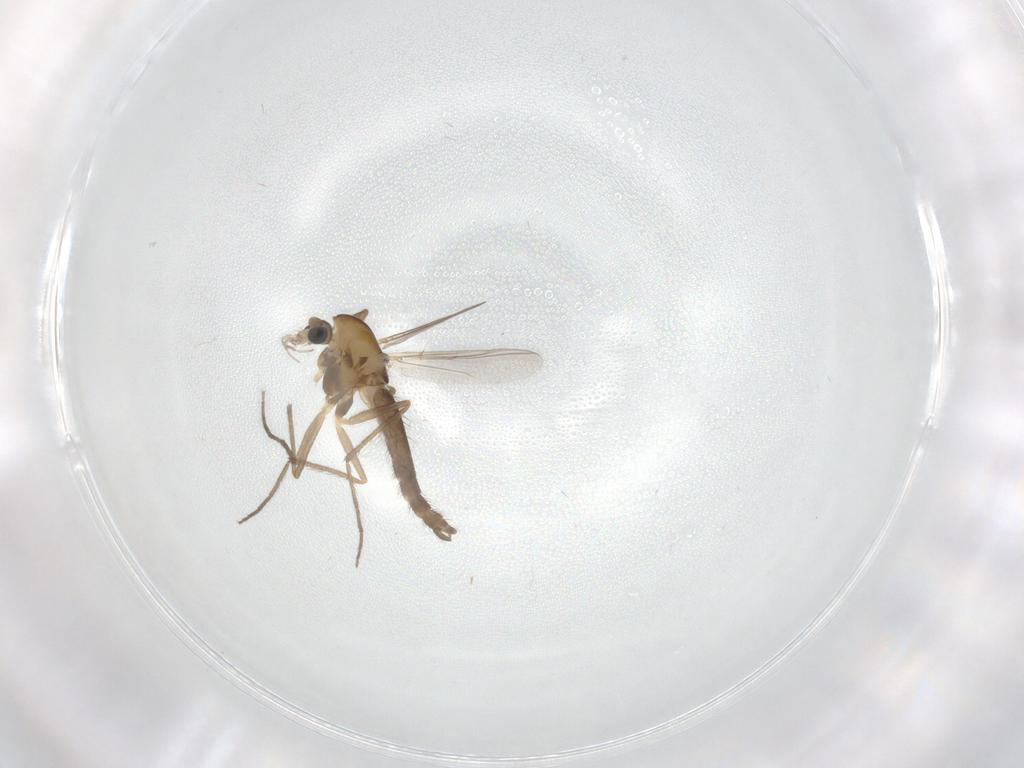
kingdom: Animalia
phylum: Arthropoda
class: Insecta
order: Diptera
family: Chironomidae
